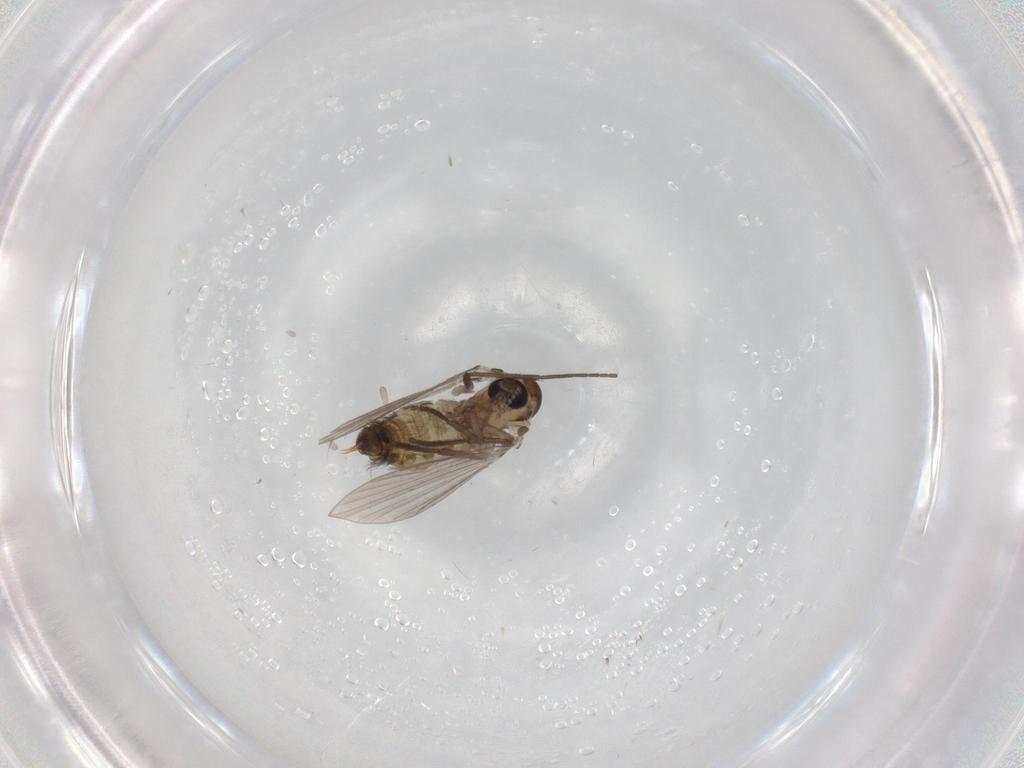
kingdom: Animalia
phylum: Arthropoda
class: Insecta
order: Diptera
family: Psychodidae
